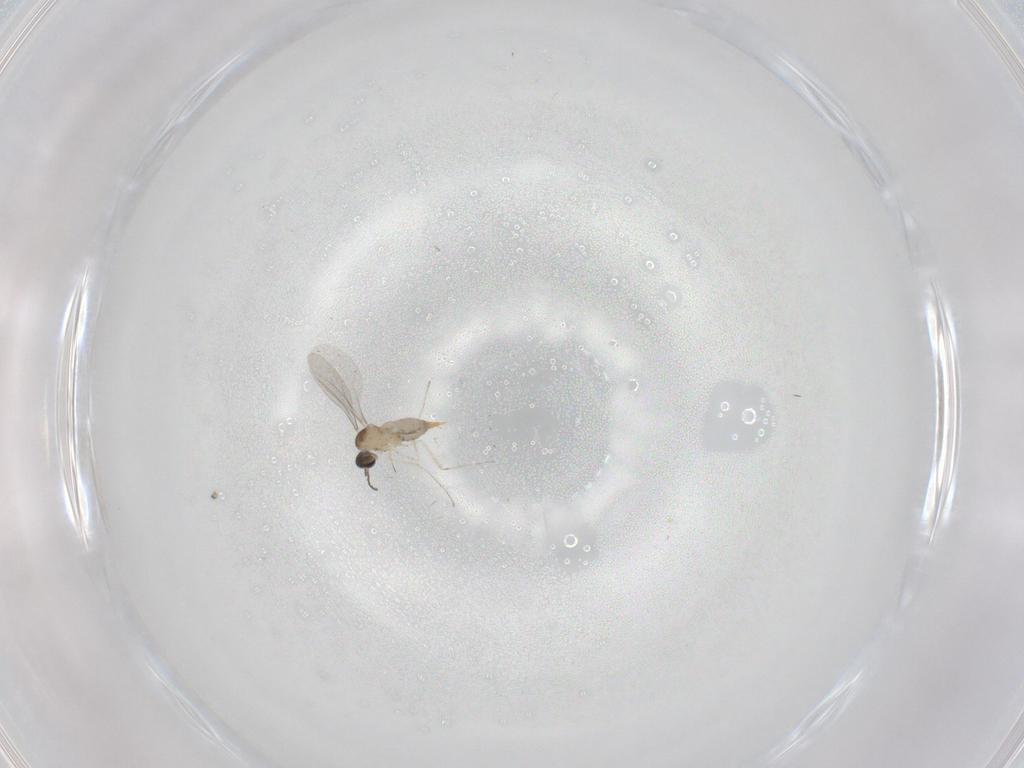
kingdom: Animalia
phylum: Arthropoda
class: Insecta
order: Diptera
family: Cecidomyiidae
